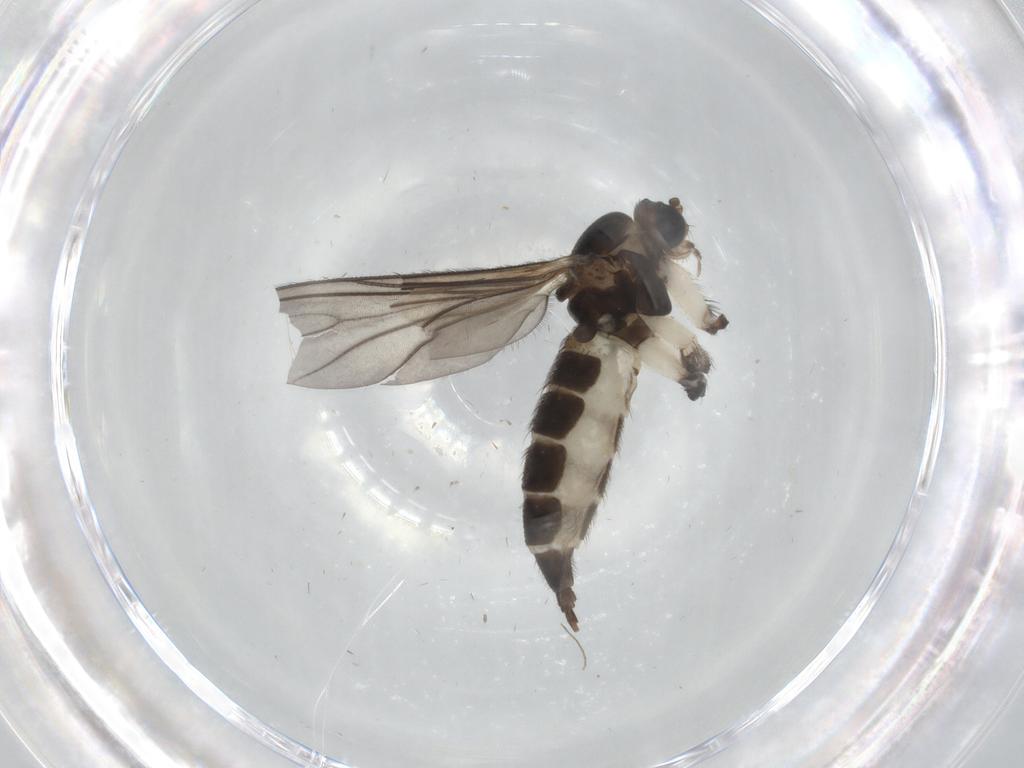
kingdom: Animalia
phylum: Arthropoda
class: Insecta
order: Diptera
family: Sciaridae
